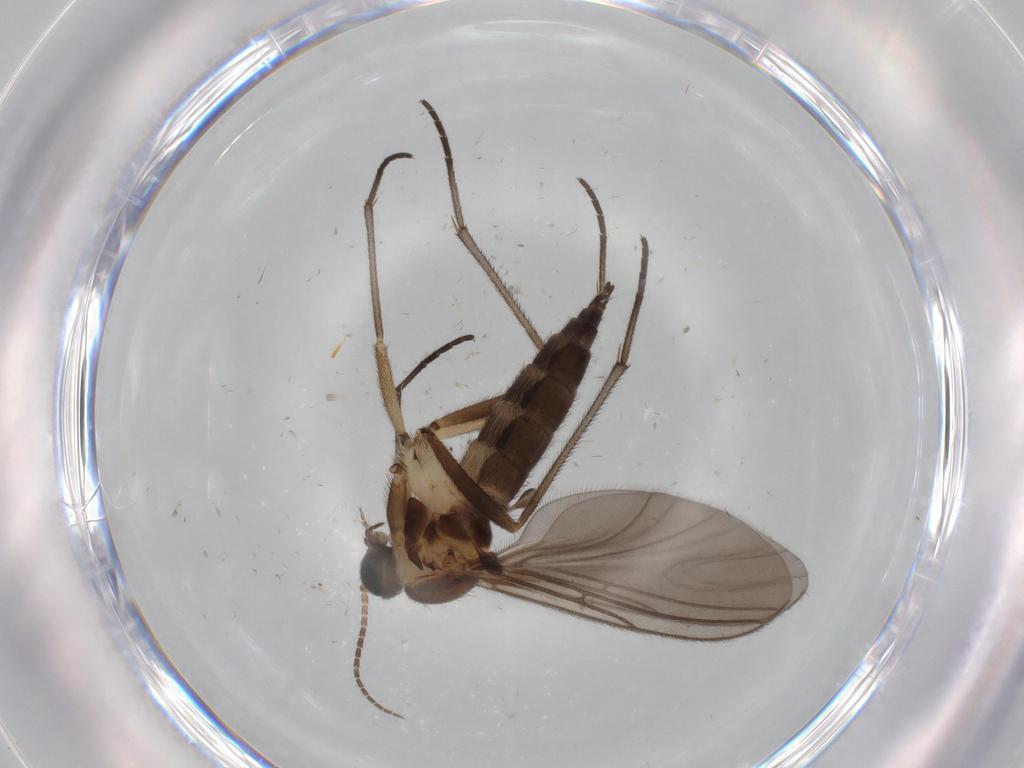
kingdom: Animalia
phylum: Arthropoda
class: Insecta
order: Diptera
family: Sciaridae
